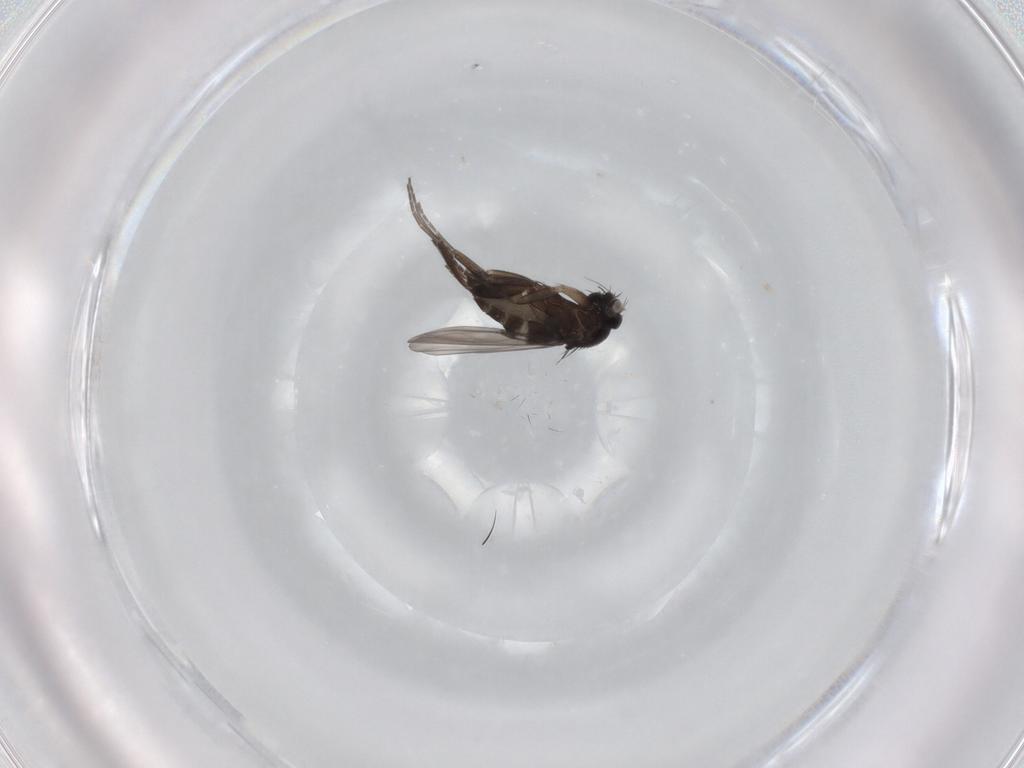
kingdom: Animalia
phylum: Arthropoda
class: Insecta
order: Diptera
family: Phoridae
